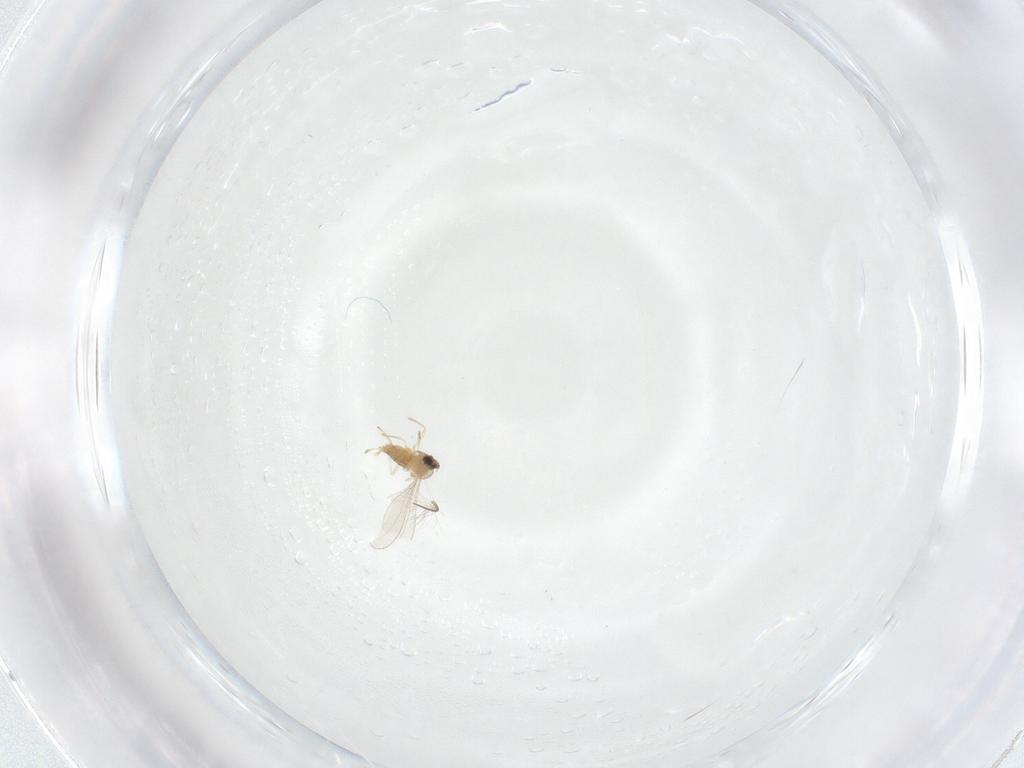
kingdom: Animalia
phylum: Arthropoda
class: Insecta
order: Diptera
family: Cecidomyiidae
